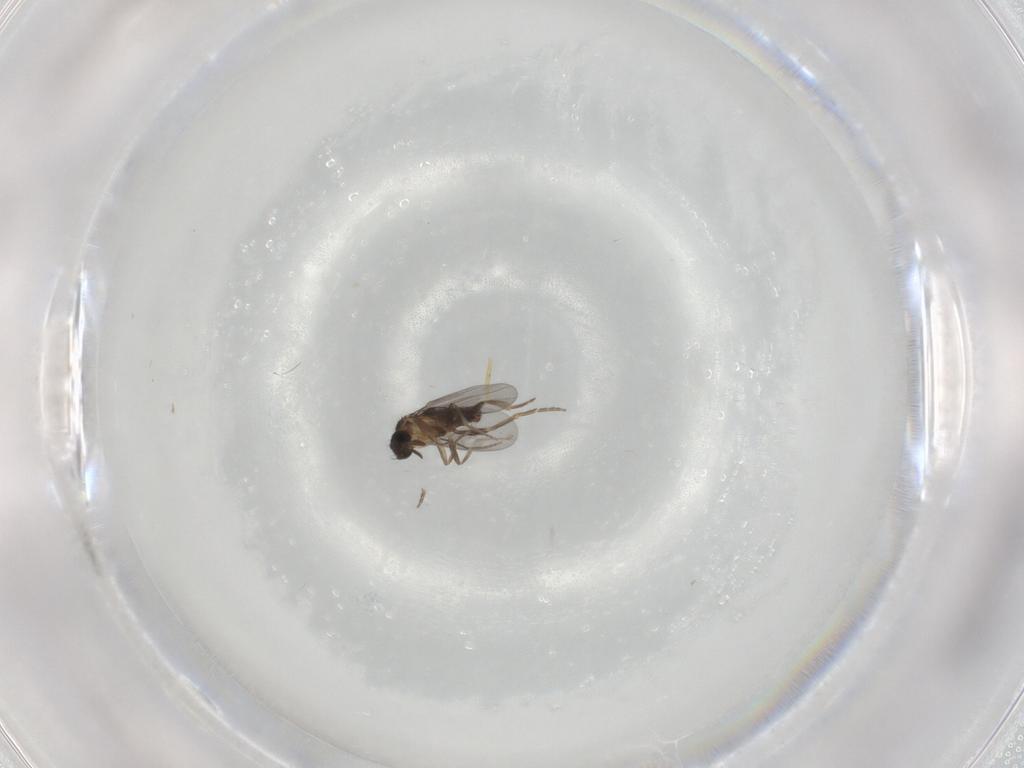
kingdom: Animalia
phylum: Arthropoda
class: Insecta
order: Diptera
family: Chironomidae
